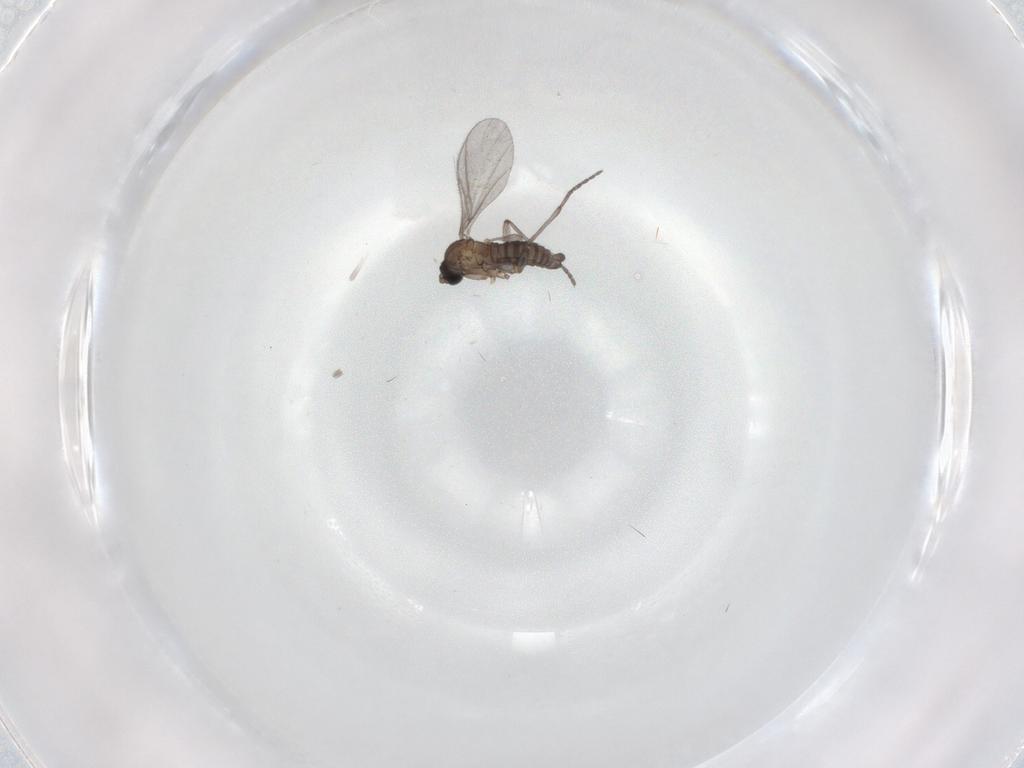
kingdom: Animalia
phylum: Arthropoda
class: Insecta
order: Diptera
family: Sciaridae
